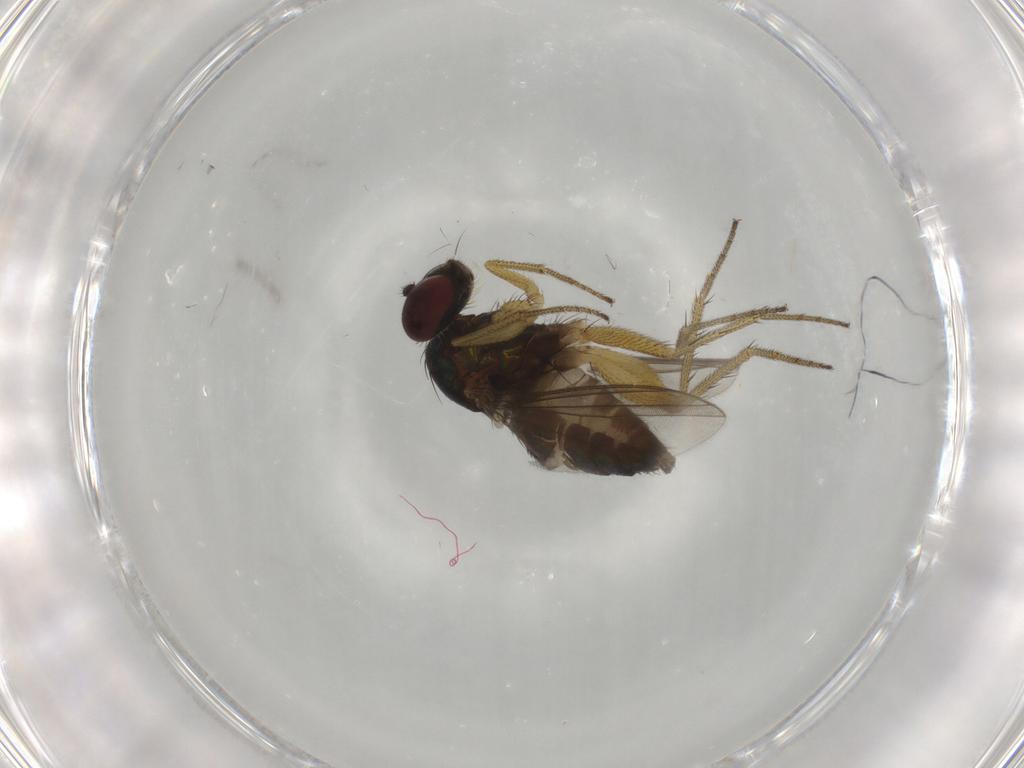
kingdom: Animalia
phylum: Arthropoda
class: Insecta
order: Diptera
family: Dolichopodidae
